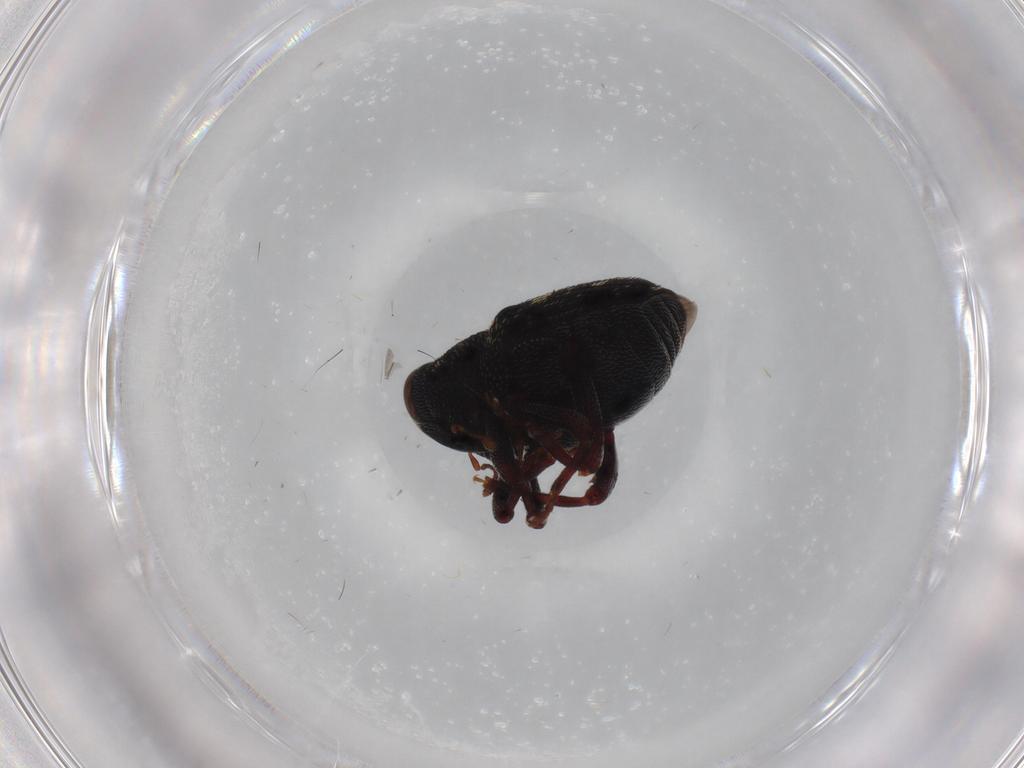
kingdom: Animalia
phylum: Arthropoda
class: Insecta
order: Coleoptera
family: Curculionidae
